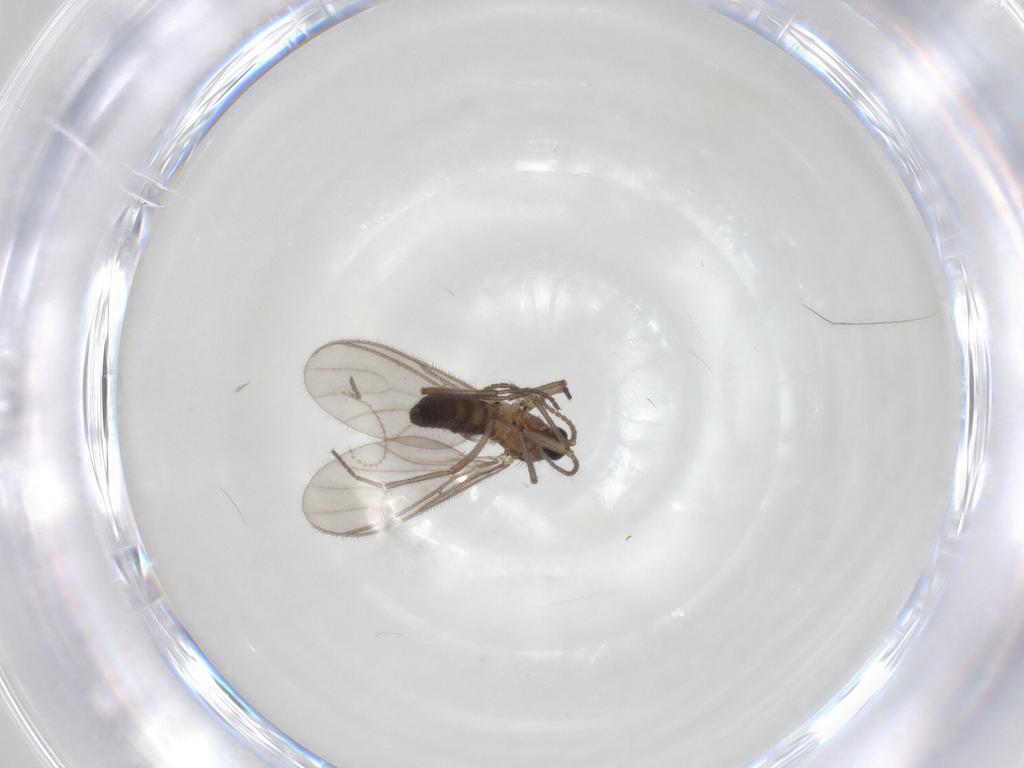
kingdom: Animalia
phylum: Arthropoda
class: Insecta
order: Diptera
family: Sciaridae
